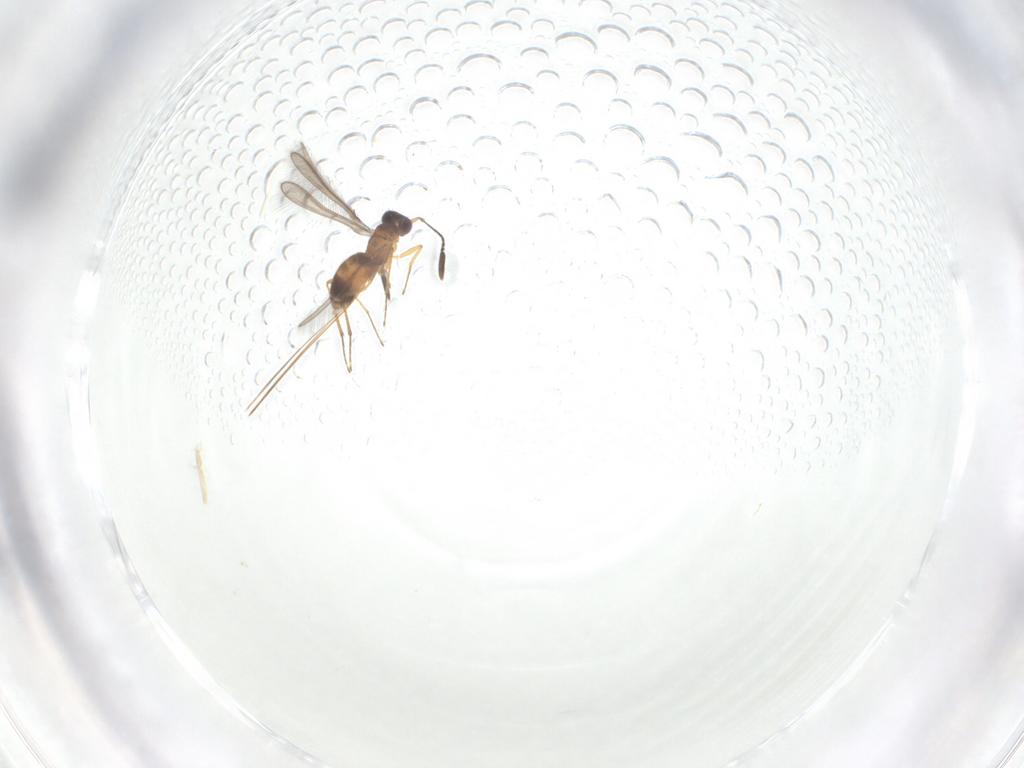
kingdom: Animalia
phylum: Arthropoda
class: Insecta
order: Hymenoptera
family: Mymaridae
